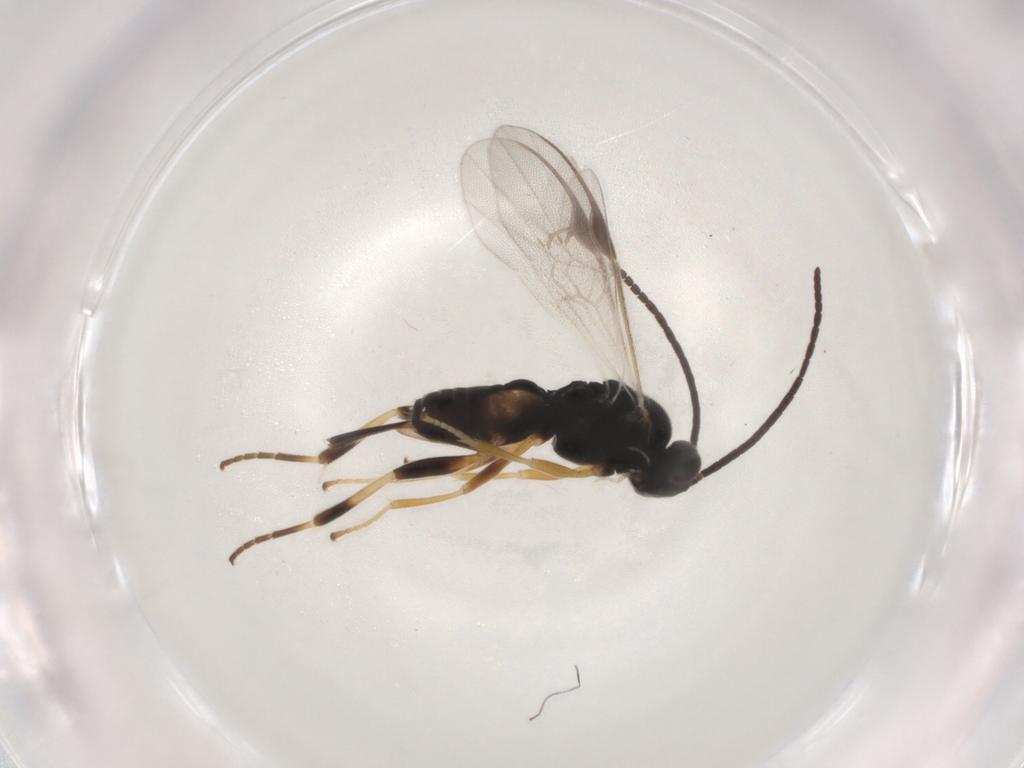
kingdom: Animalia
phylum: Arthropoda
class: Insecta
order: Hymenoptera
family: Braconidae
